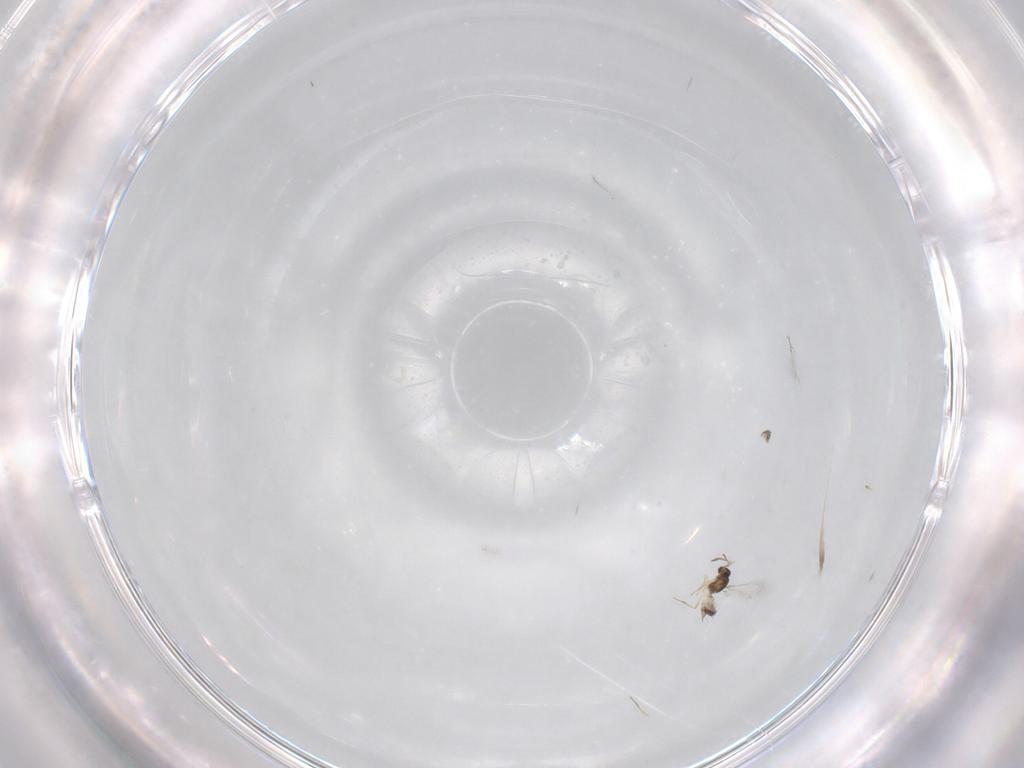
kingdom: Animalia
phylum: Arthropoda
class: Insecta
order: Hymenoptera
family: Mymaridae
